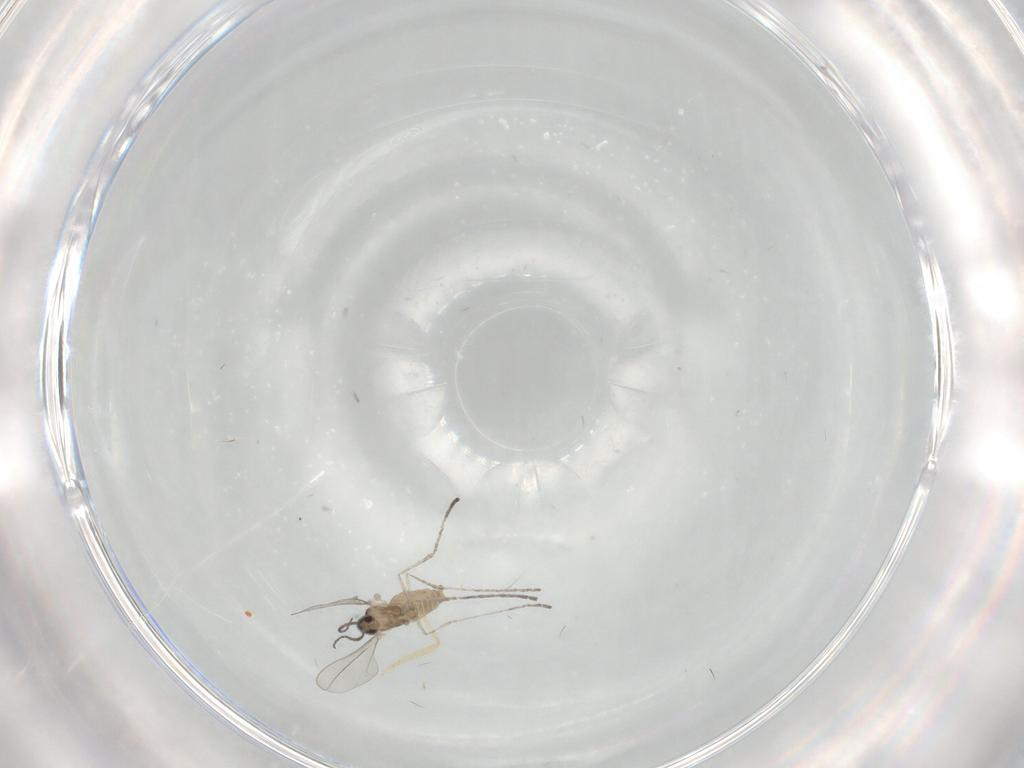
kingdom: Animalia
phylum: Arthropoda
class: Insecta
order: Diptera
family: Cecidomyiidae
